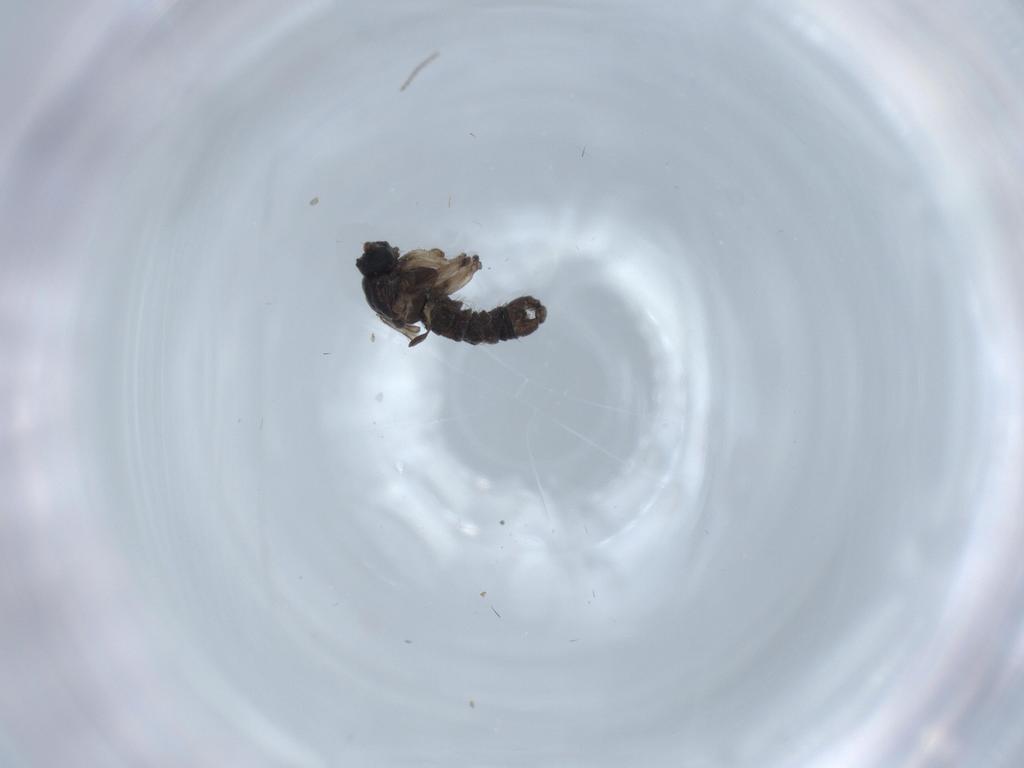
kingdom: Animalia
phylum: Arthropoda
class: Insecta
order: Diptera
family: Sciaridae
